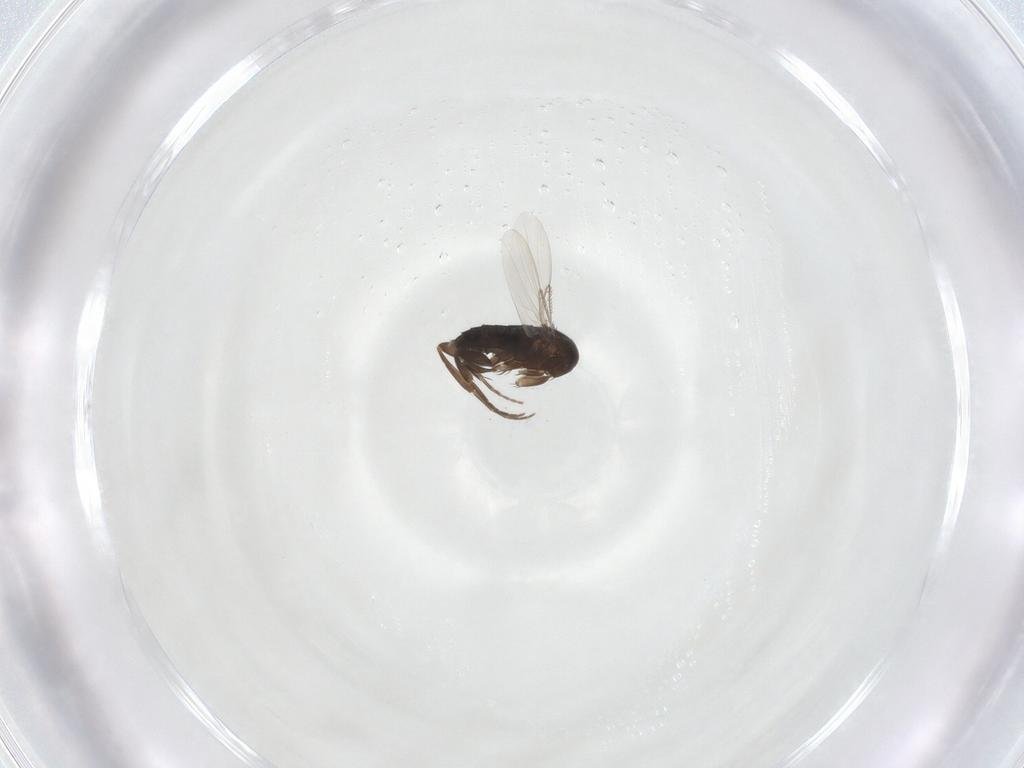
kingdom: Animalia
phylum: Arthropoda
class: Insecta
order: Diptera
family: Phoridae
